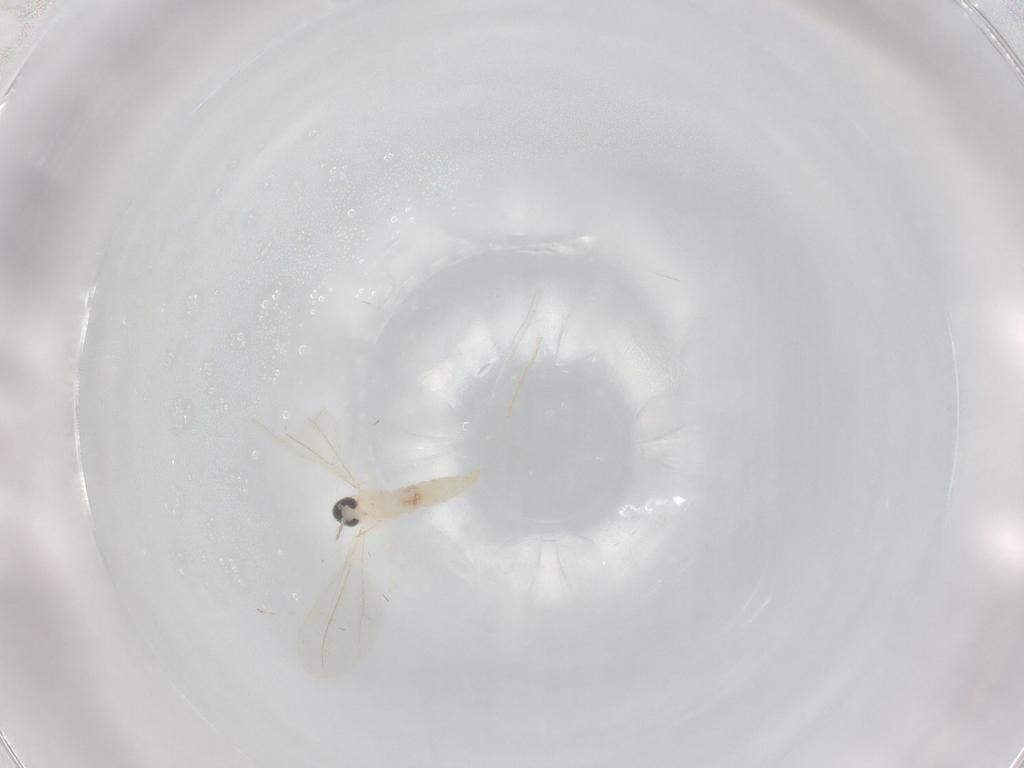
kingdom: Animalia
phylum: Arthropoda
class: Insecta
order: Diptera
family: Cecidomyiidae
